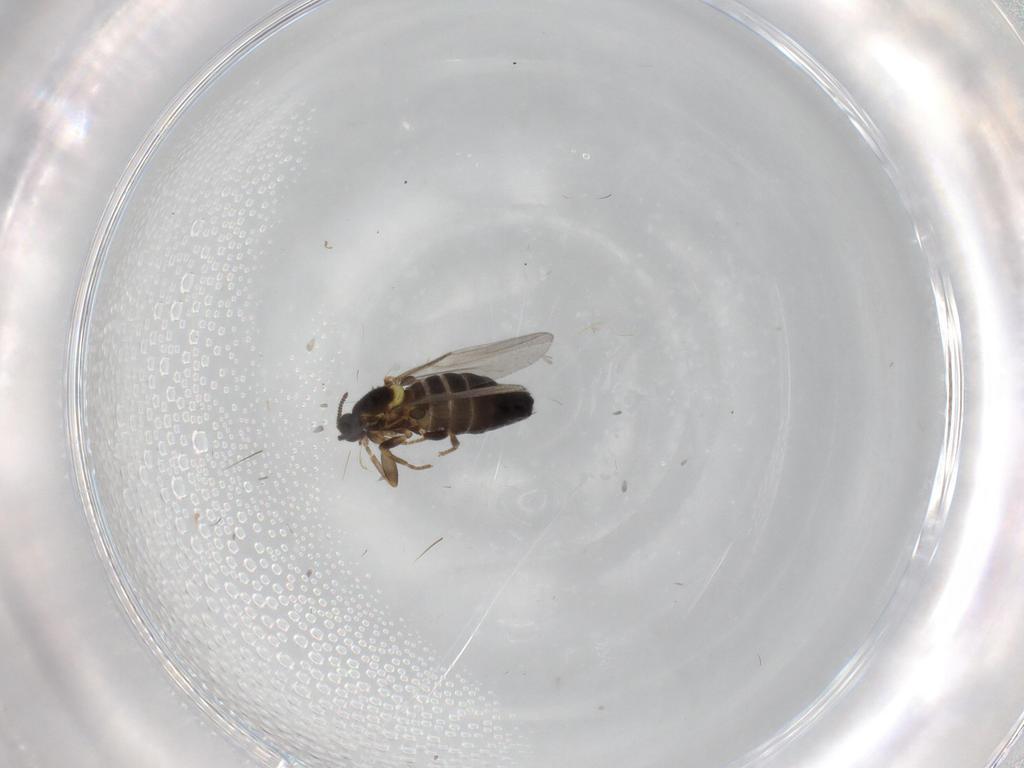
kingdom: Animalia
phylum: Arthropoda
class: Insecta
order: Diptera
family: Scatopsidae
